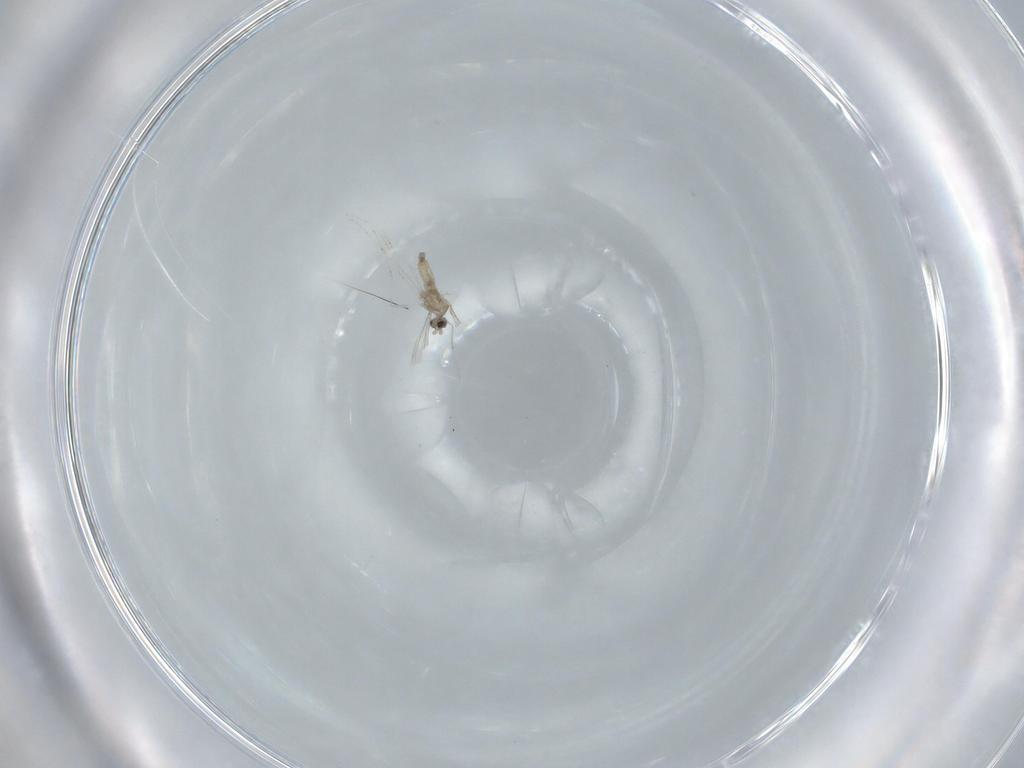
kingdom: Animalia
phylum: Arthropoda
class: Insecta
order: Diptera
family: Cecidomyiidae
